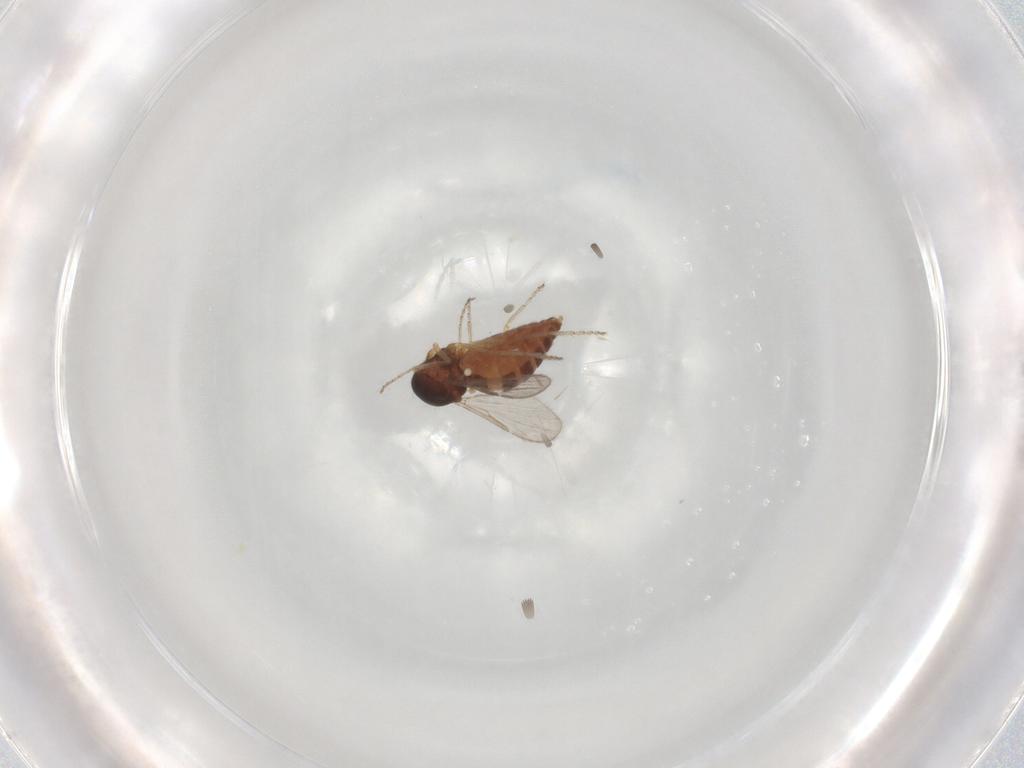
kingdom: Animalia
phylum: Arthropoda
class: Insecta
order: Diptera
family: Ceratopogonidae
